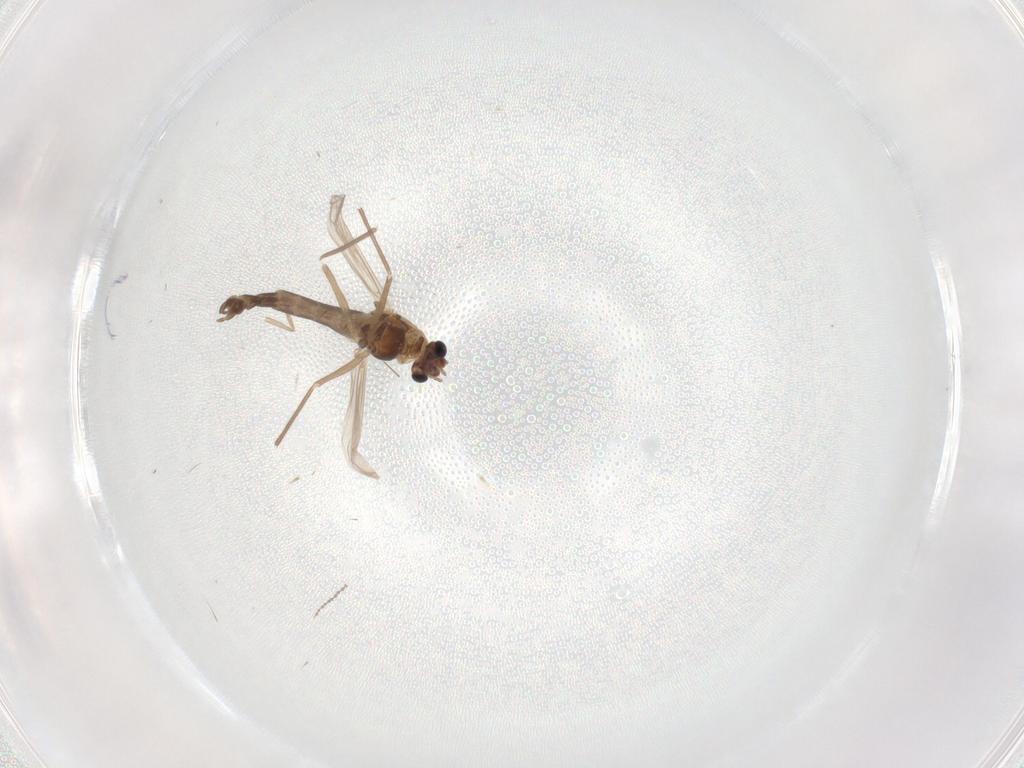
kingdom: Animalia
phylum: Arthropoda
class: Insecta
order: Diptera
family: Chironomidae
